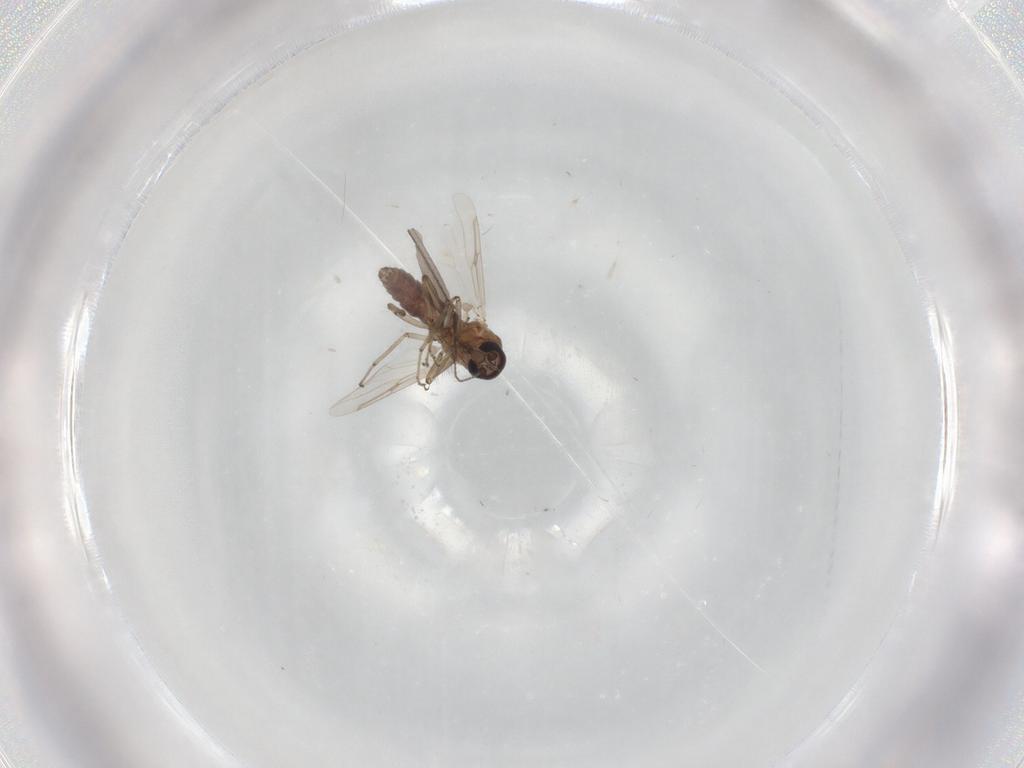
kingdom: Animalia
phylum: Arthropoda
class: Insecta
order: Diptera
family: Ceratopogonidae
